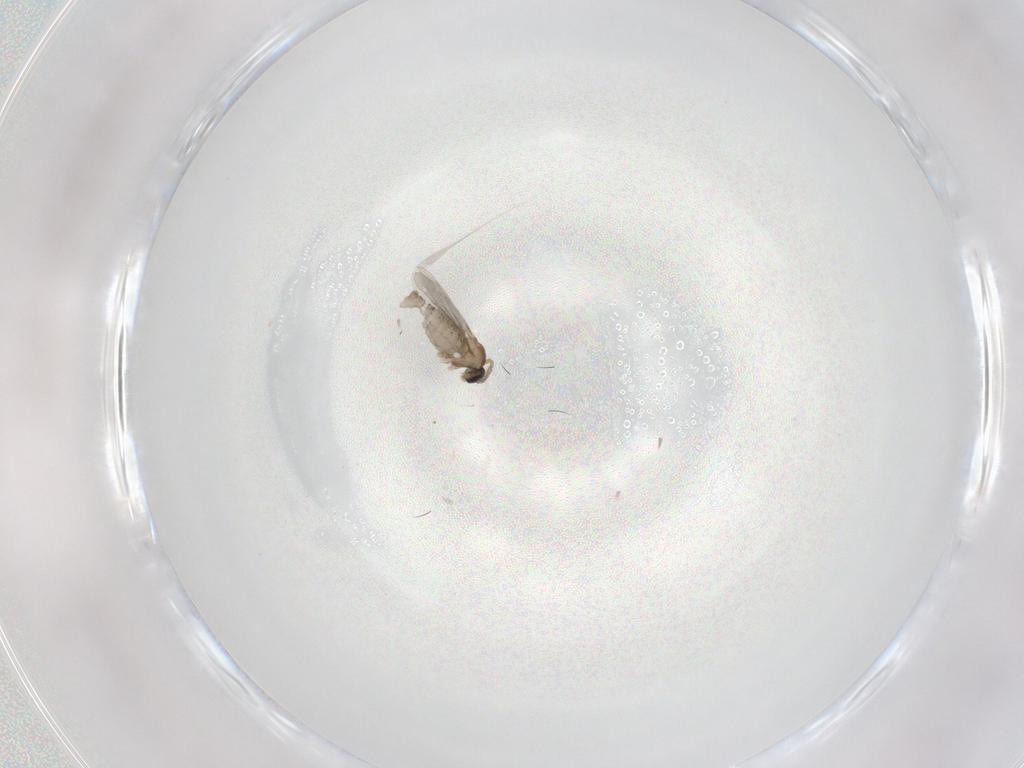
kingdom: Animalia
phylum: Arthropoda
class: Insecta
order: Diptera
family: Cecidomyiidae
